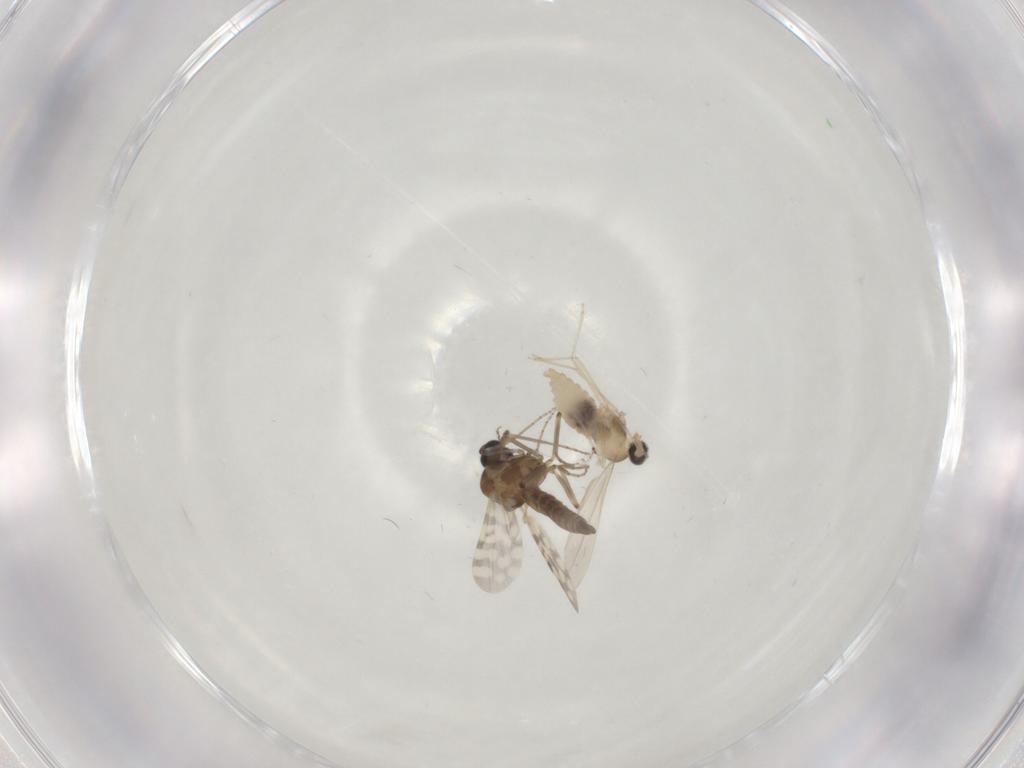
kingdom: Animalia
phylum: Arthropoda
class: Insecta
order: Diptera
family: Ceratopogonidae
